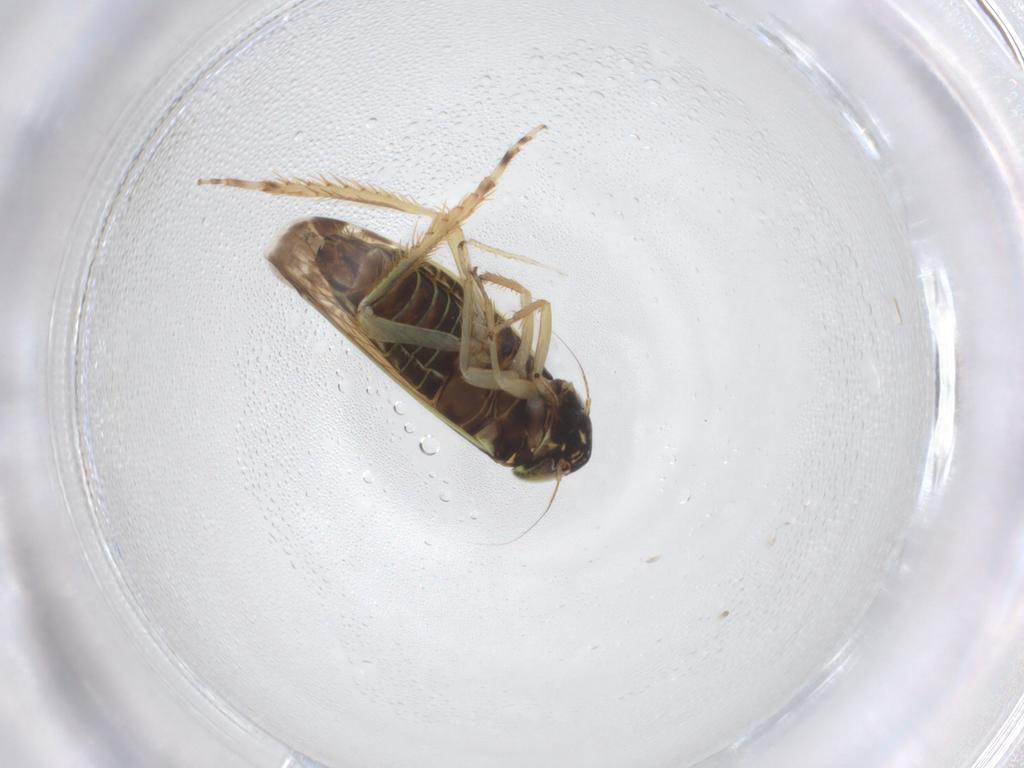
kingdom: Animalia
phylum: Arthropoda
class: Insecta
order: Hemiptera
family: Cicadellidae
